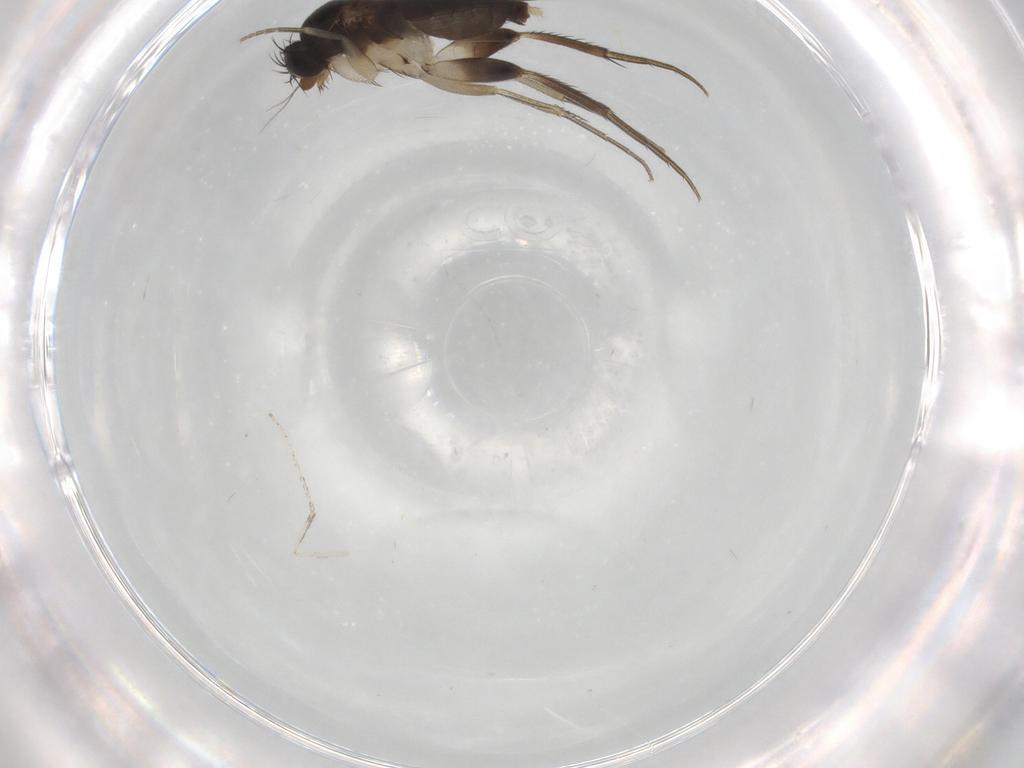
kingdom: Animalia
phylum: Arthropoda
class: Insecta
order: Diptera
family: Phoridae
